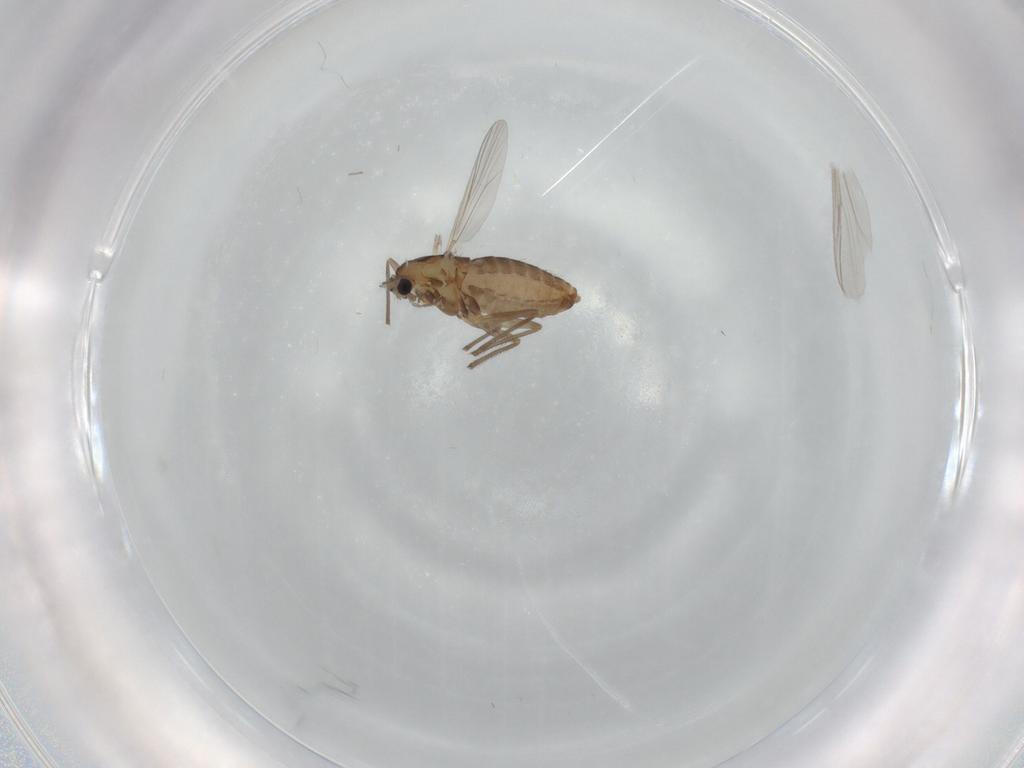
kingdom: Animalia
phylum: Arthropoda
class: Insecta
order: Diptera
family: Chironomidae
